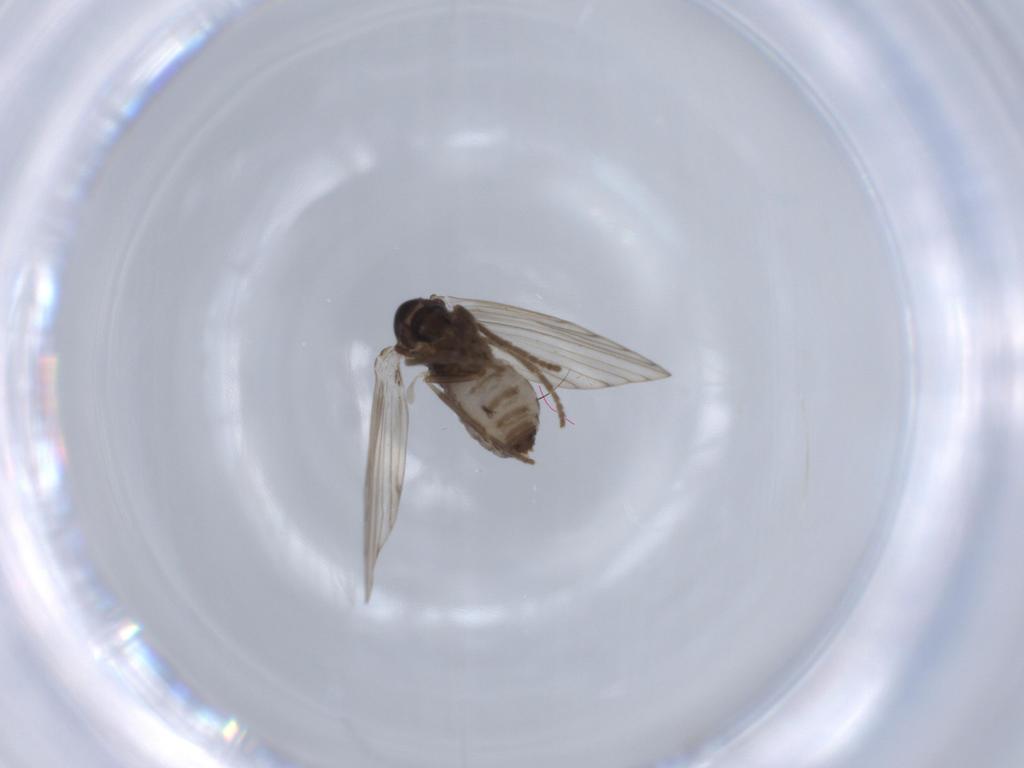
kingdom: Animalia
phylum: Arthropoda
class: Insecta
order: Diptera
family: Psychodidae
